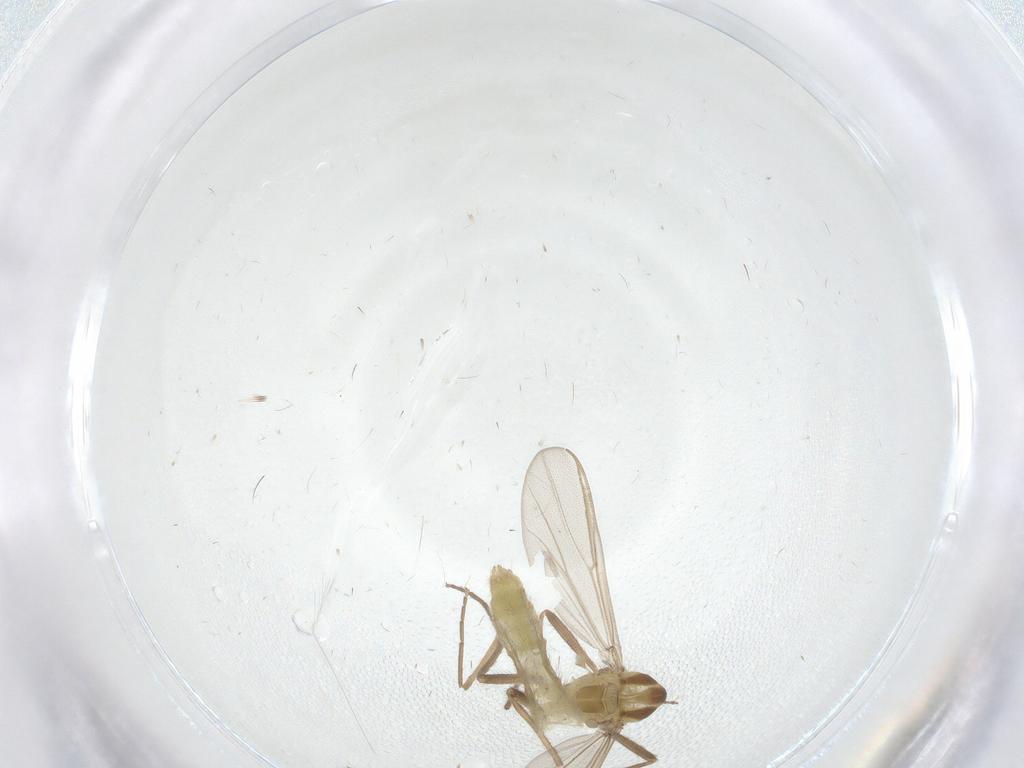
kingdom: Animalia
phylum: Arthropoda
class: Insecta
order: Diptera
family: Chironomidae
